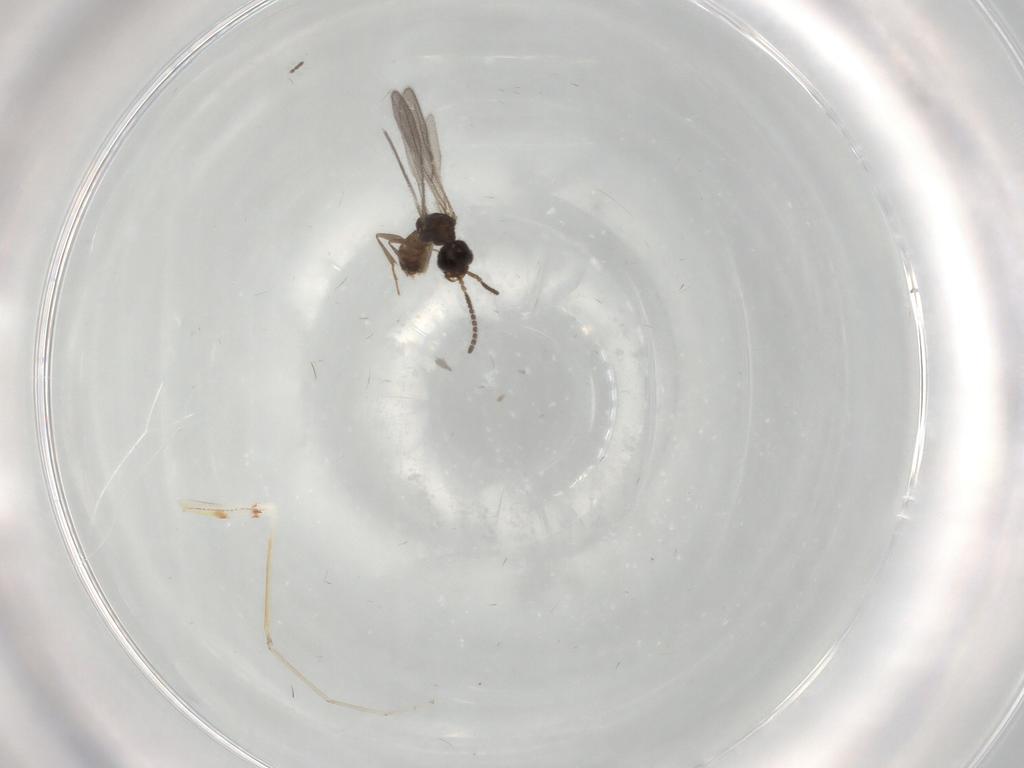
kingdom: Animalia
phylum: Arthropoda
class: Insecta
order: Hymenoptera
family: Bethylidae
